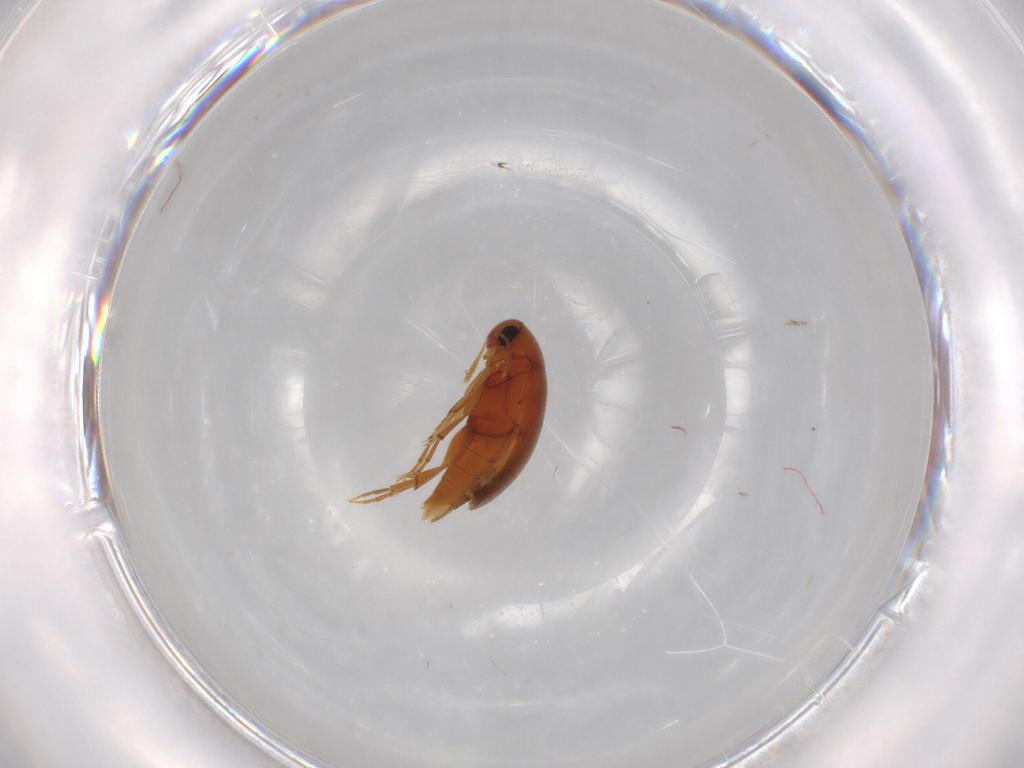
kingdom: Animalia
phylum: Arthropoda
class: Insecta
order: Coleoptera
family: Scraptiidae
